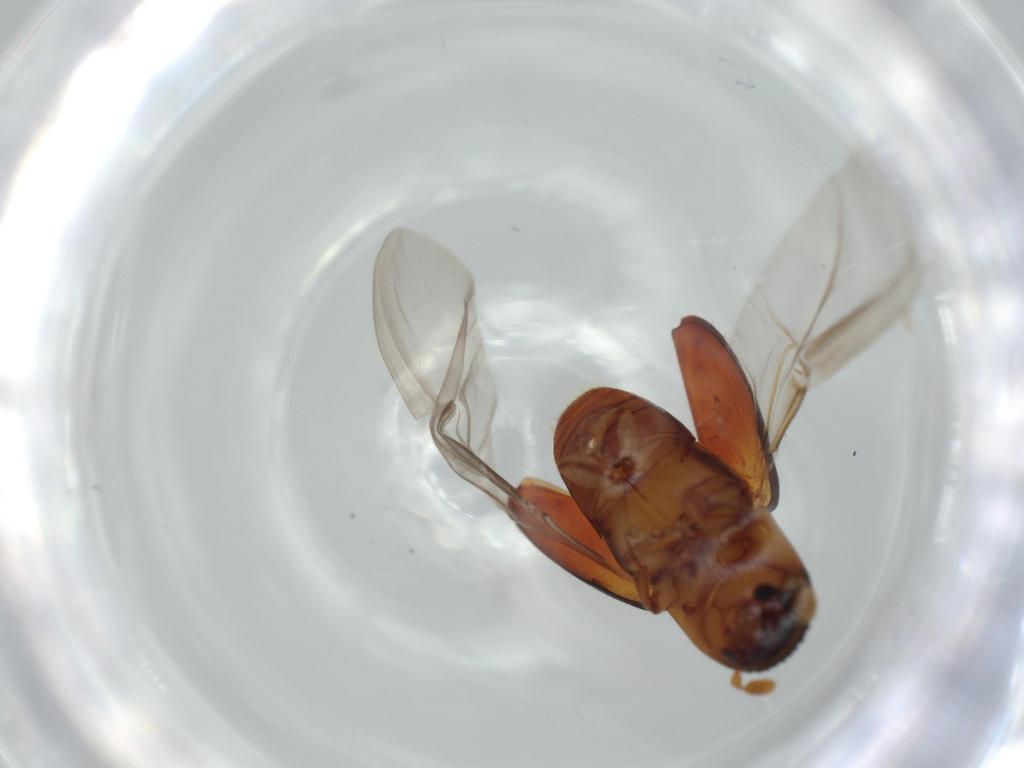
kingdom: Animalia
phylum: Arthropoda
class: Insecta
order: Coleoptera
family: Curculionidae
